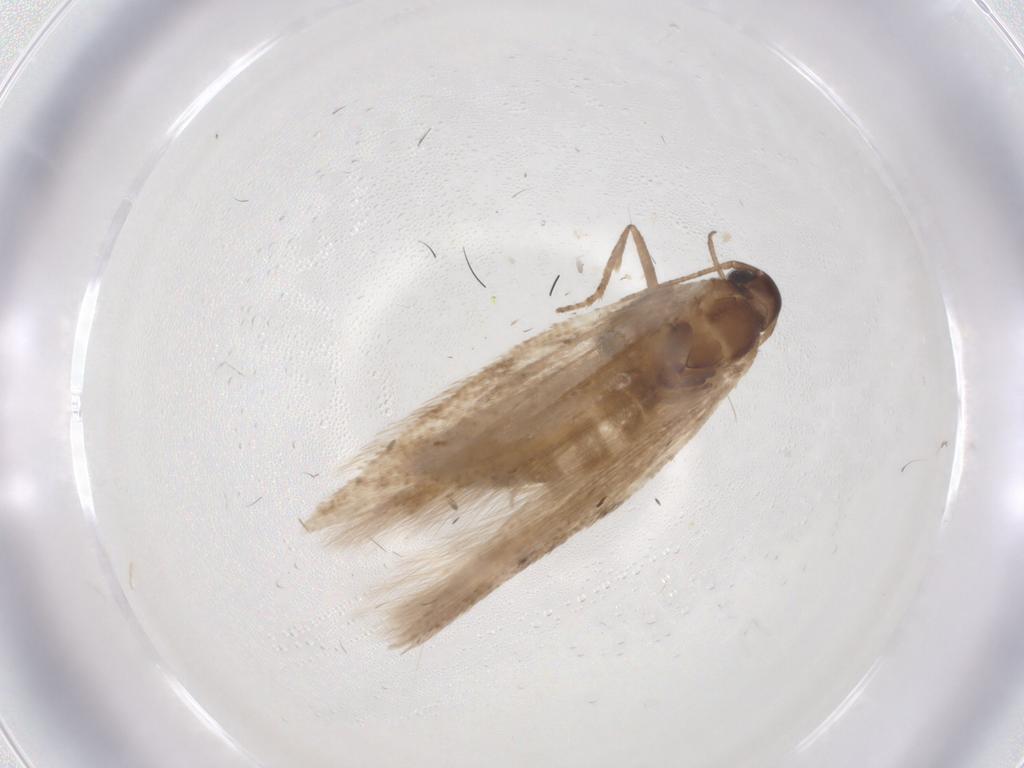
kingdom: Animalia
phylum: Arthropoda
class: Insecta
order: Lepidoptera
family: Gelechiidae
